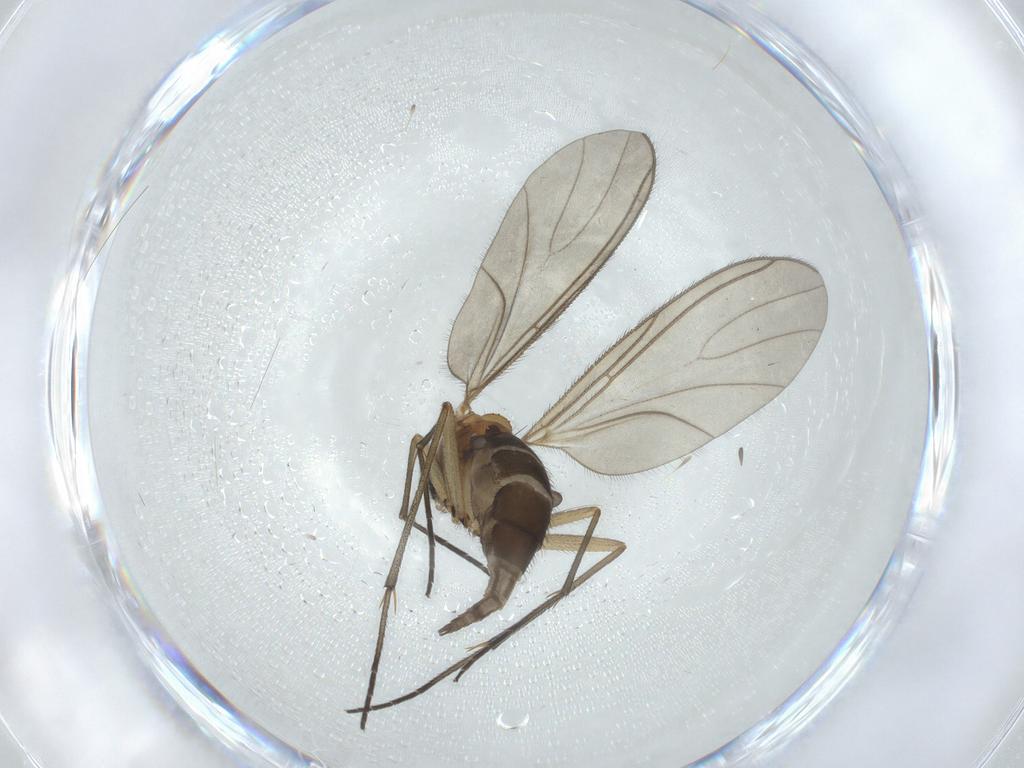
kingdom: Animalia
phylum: Arthropoda
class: Insecta
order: Diptera
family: Sciaridae
